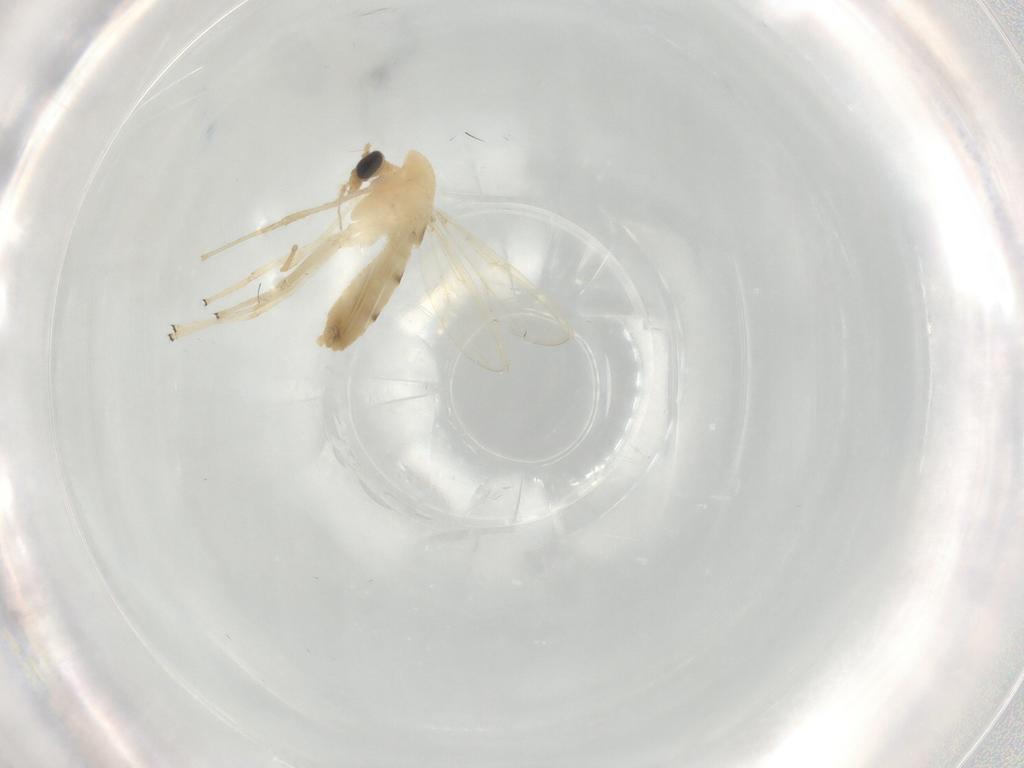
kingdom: Animalia
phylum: Arthropoda
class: Insecta
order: Diptera
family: Chironomidae
